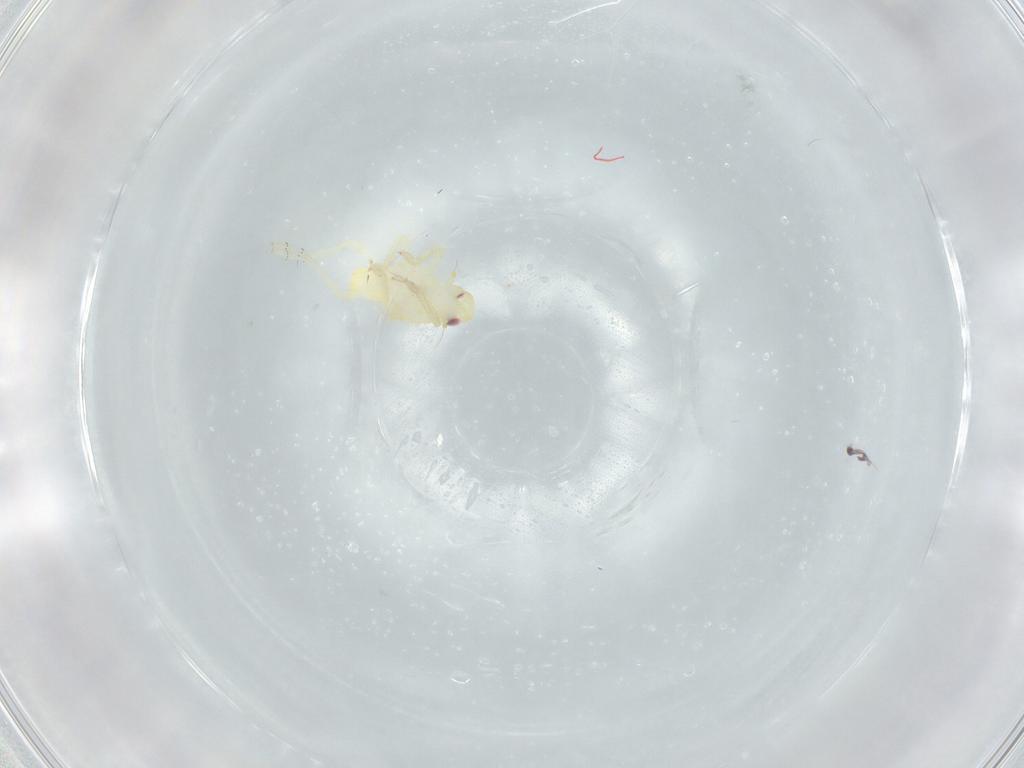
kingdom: Animalia
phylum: Arthropoda
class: Insecta
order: Hemiptera
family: Tropiduchidae
